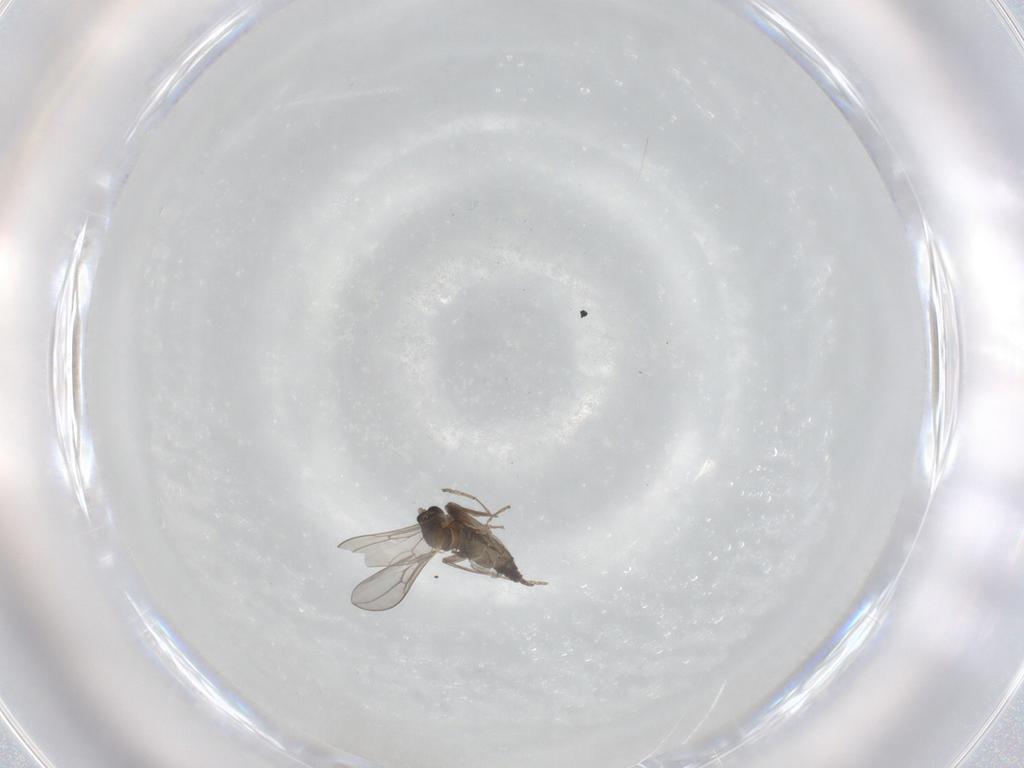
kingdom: Animalia
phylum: Arthropoda
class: Insecta
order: Diptera
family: Cecidomyiidae
